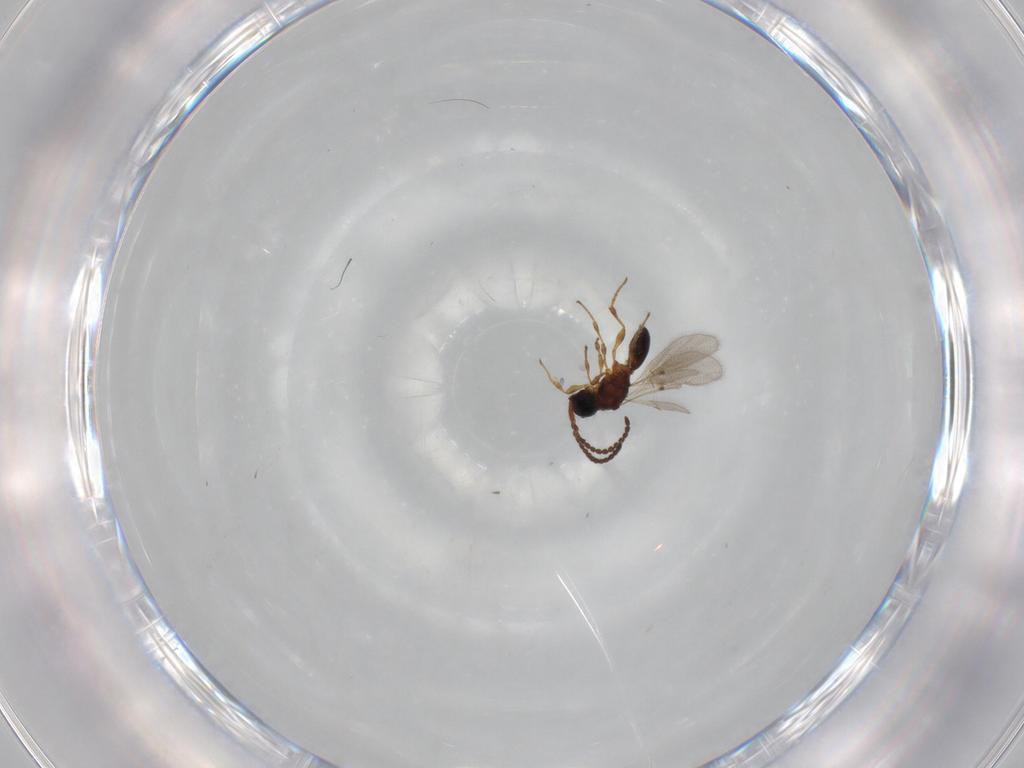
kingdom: Animalia
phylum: Arthropoda
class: Insecta
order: Hymenoptera
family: Diapriidae
